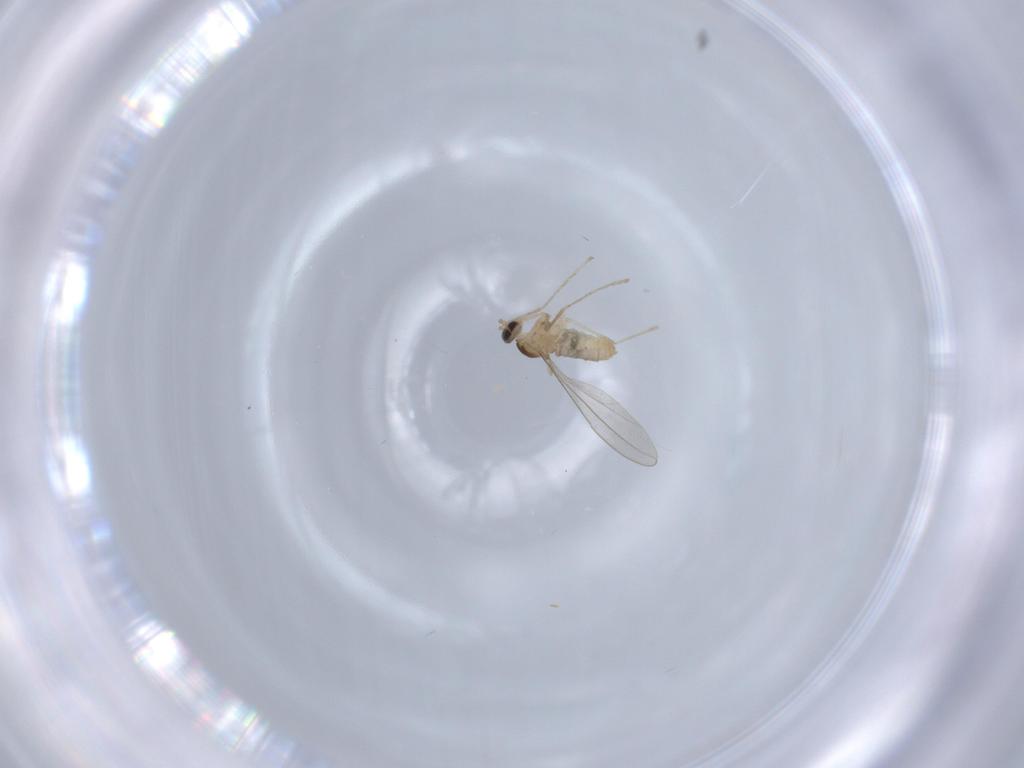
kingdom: Animalia
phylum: Arthropoda
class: Insecta
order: Diptera
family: Cecidomyiidae
